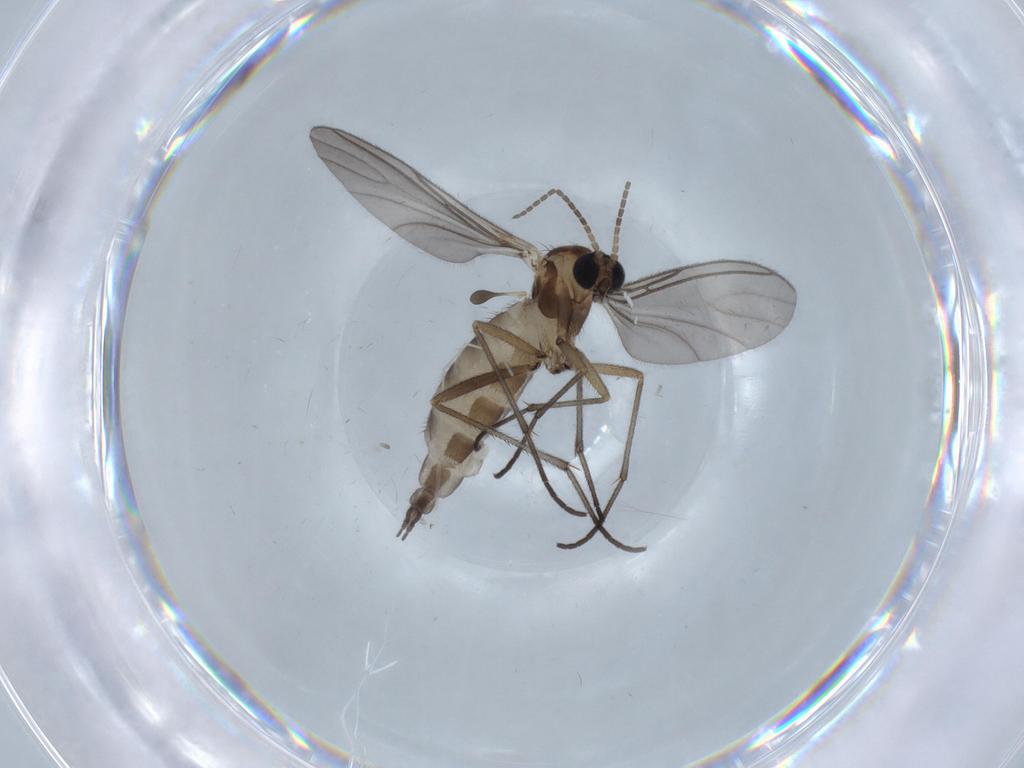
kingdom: Animalia
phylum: Arthropoda
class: Insecta
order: Diptera
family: Sciaridae
